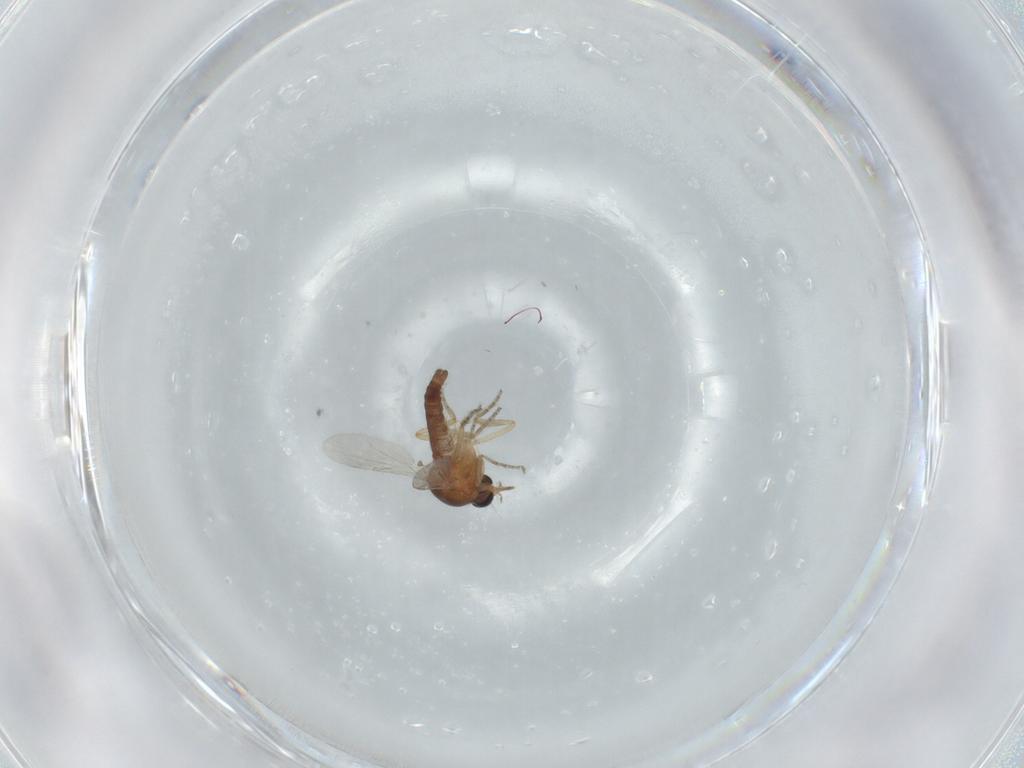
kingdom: Animalia
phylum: Arthropoda
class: Insecta
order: Diptera
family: Ceratopogonidae
